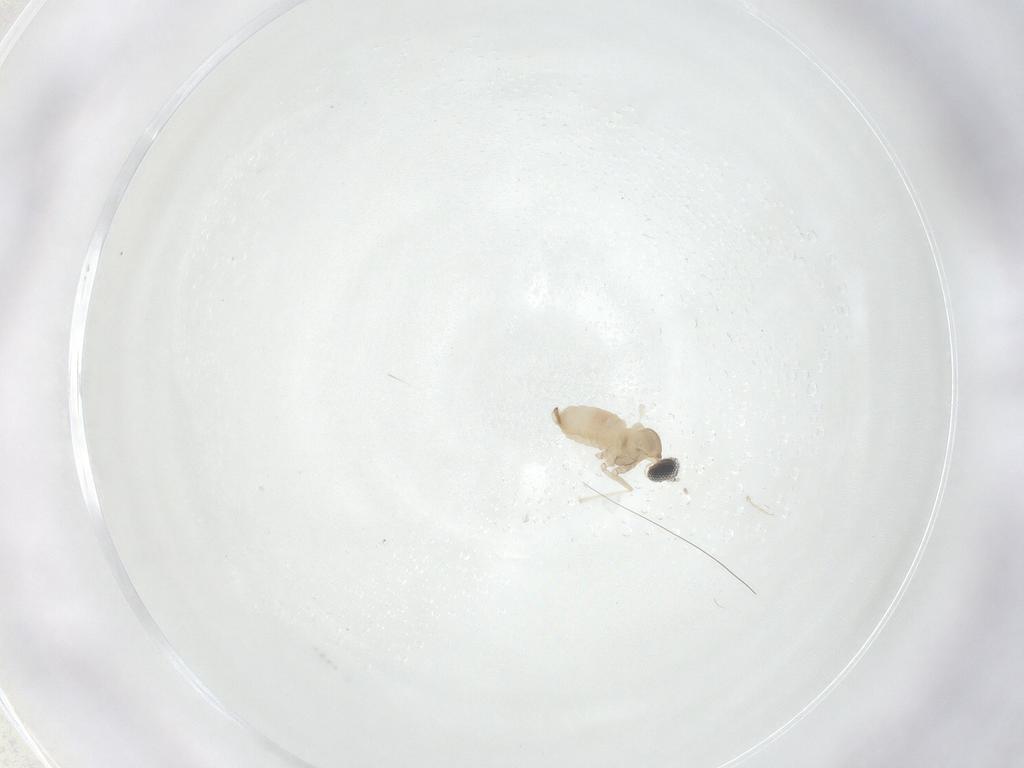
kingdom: Animalia
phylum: Arthropoda
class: Insecta
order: Diptera
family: Cecidomyiidae
